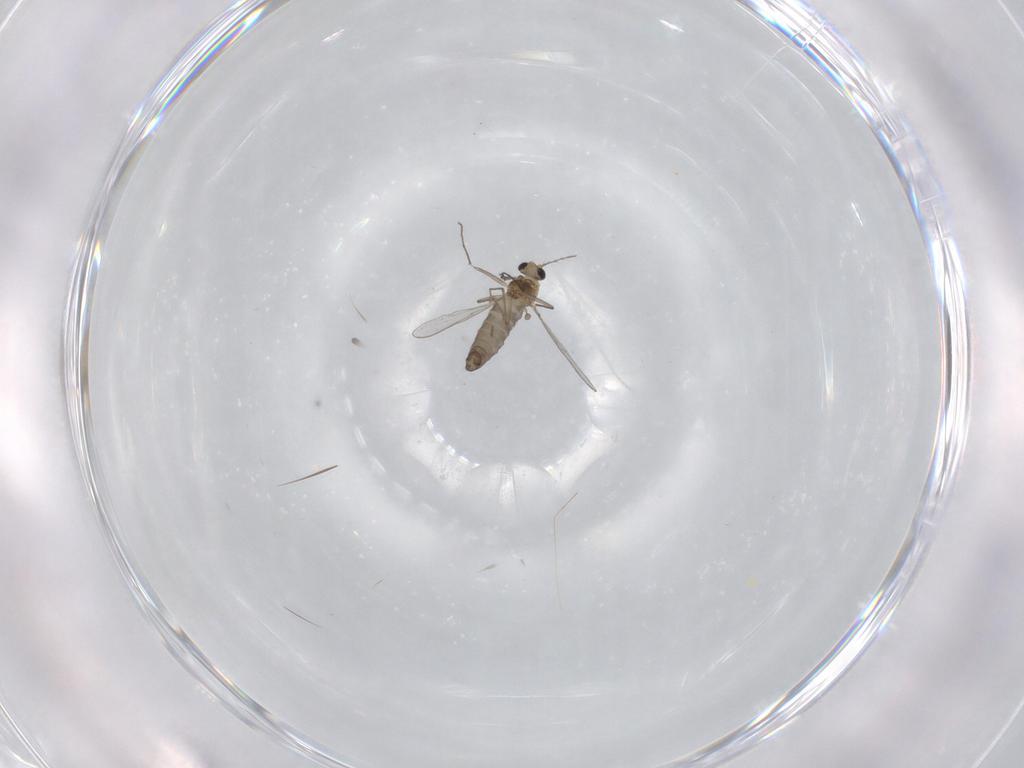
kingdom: Animalia
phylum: Arthropoda
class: Insecta
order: Diptera
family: Chironomidae
